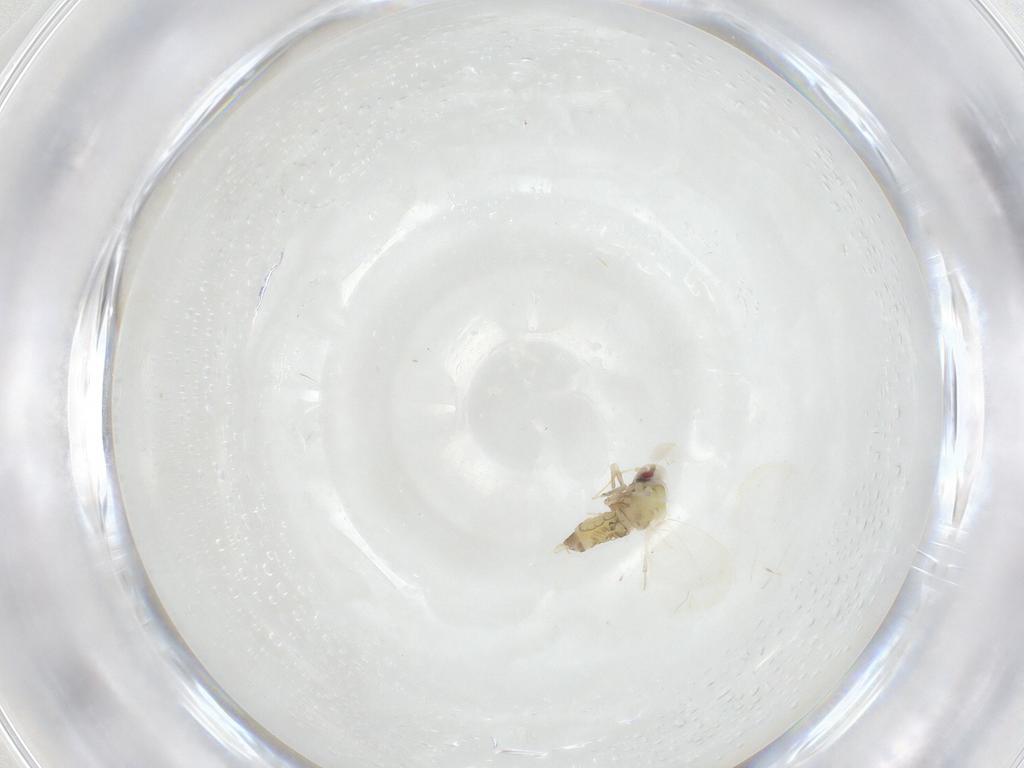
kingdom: Animalia
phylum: Arthropoda
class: Insecta
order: Hemiptera
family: Aleyrodidae
